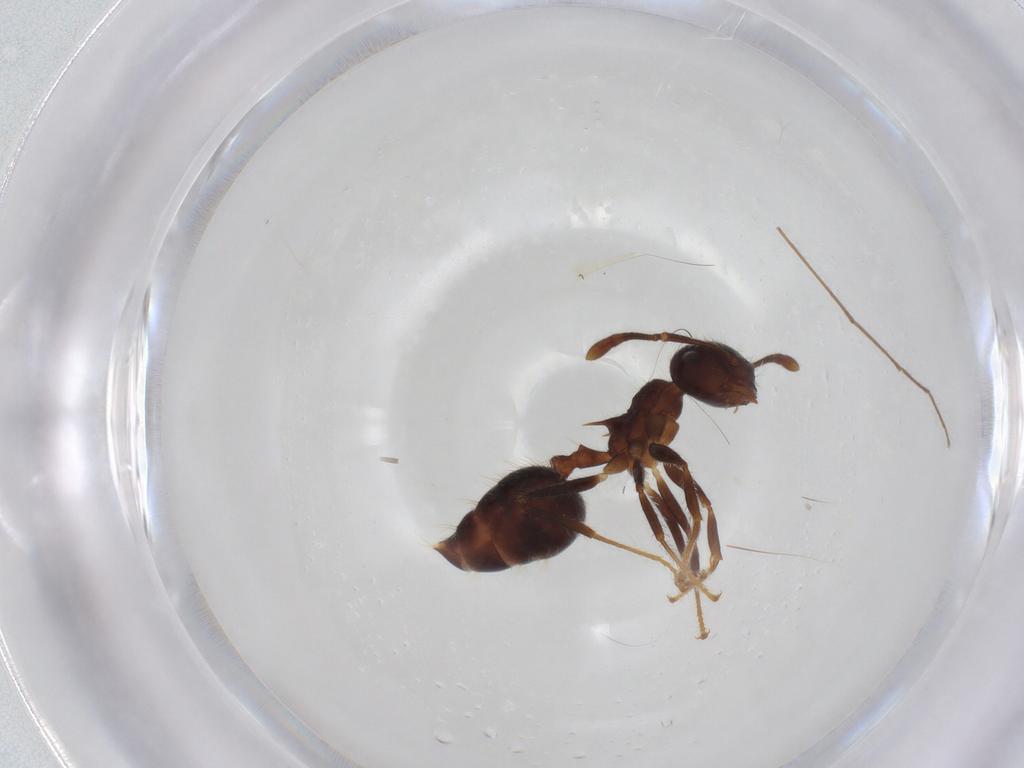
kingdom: Animalia
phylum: Arthropoda
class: Insecta
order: Hymenoptera
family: Formicidae
